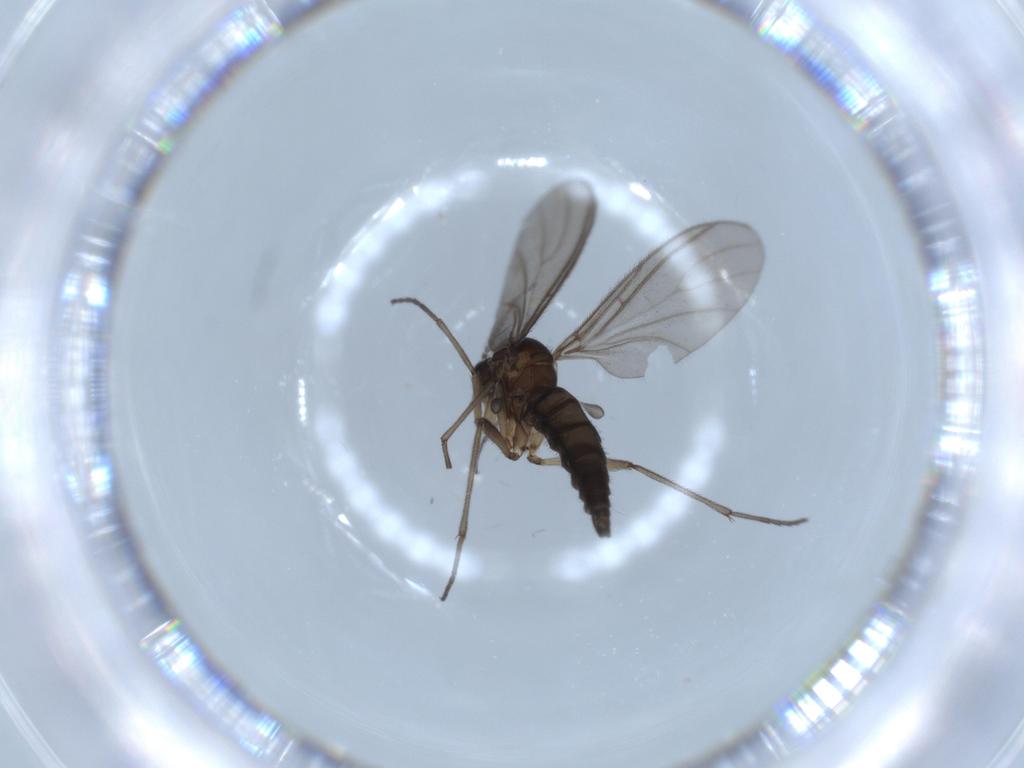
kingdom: Animalia
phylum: Arthropoda
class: Insecta
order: Diptera
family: Sciaridae
